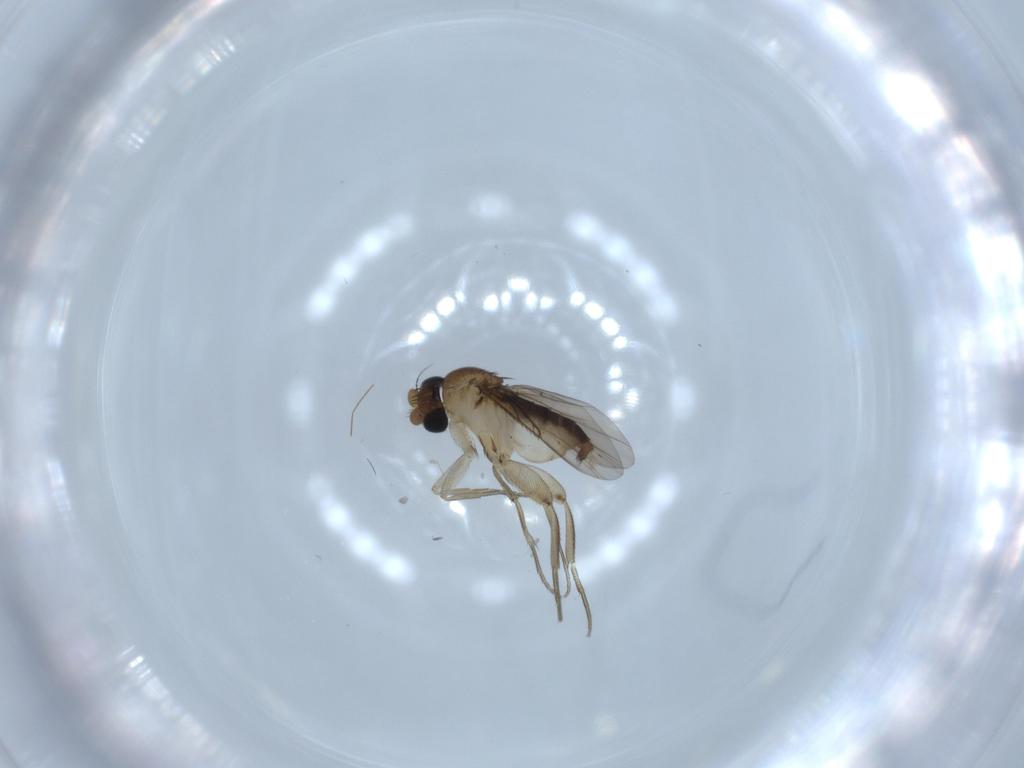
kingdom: Animalia
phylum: Arthropoda
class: Insecta
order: Diptera
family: Phoridae
